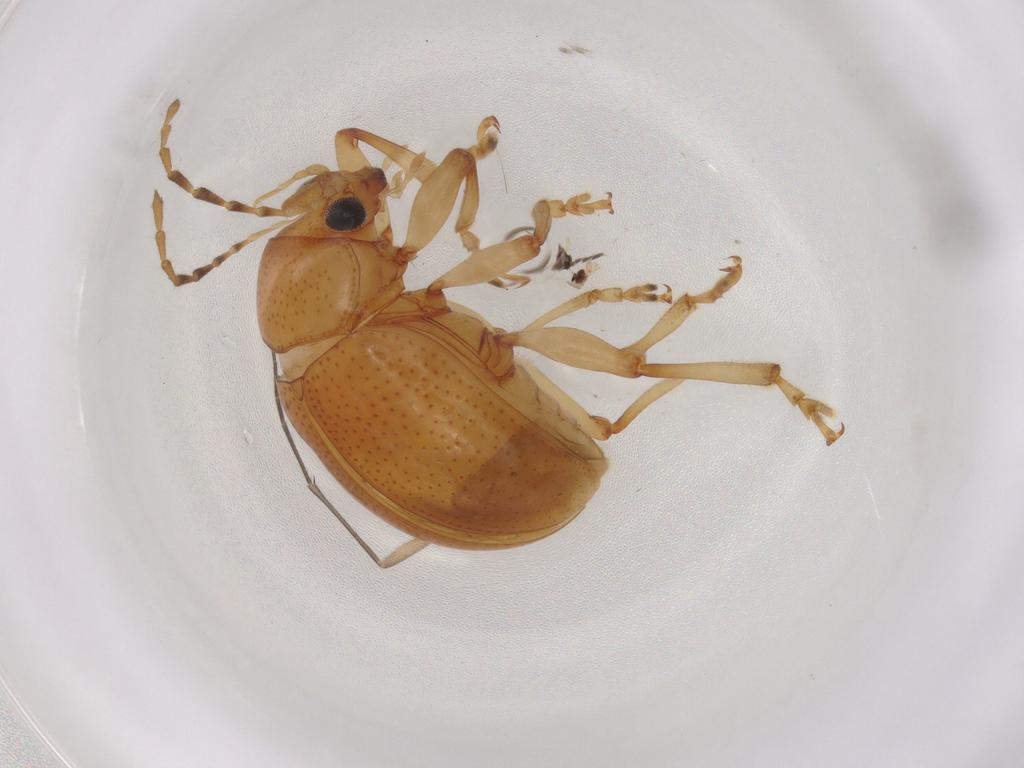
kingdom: Animalia
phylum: Arthropoda
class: Insecta
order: Coleoptera
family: Chrysomelidae
